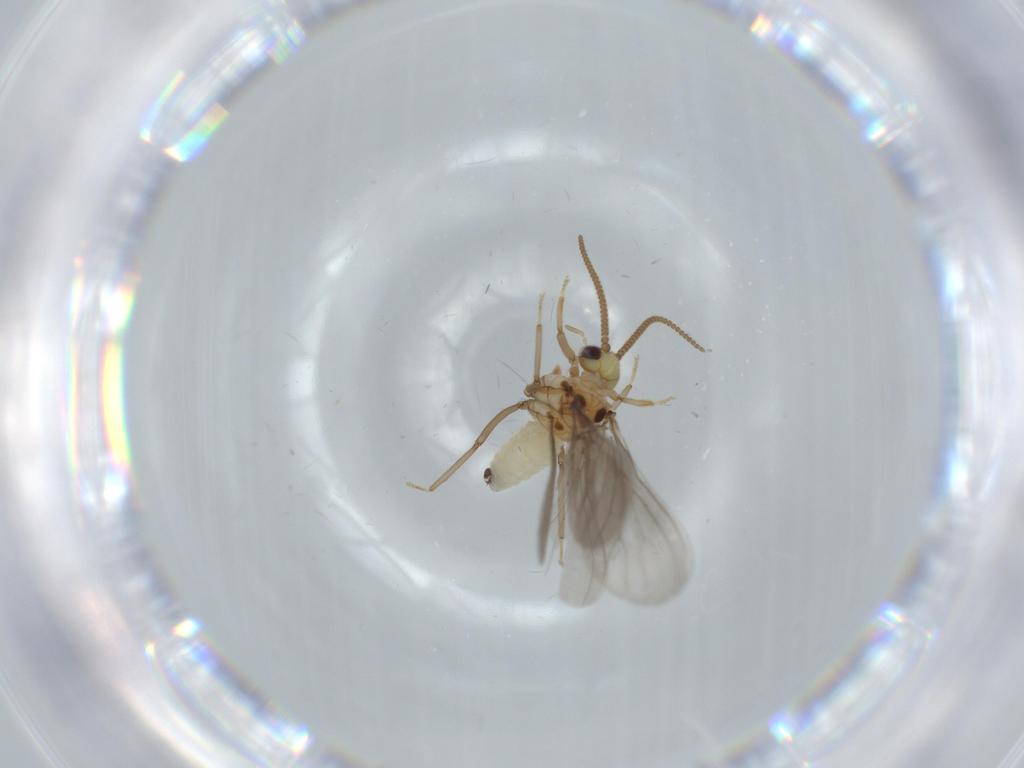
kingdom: Animalia
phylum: Arthropoda
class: Insecta
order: Neuroptera
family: Coniopterygidae
